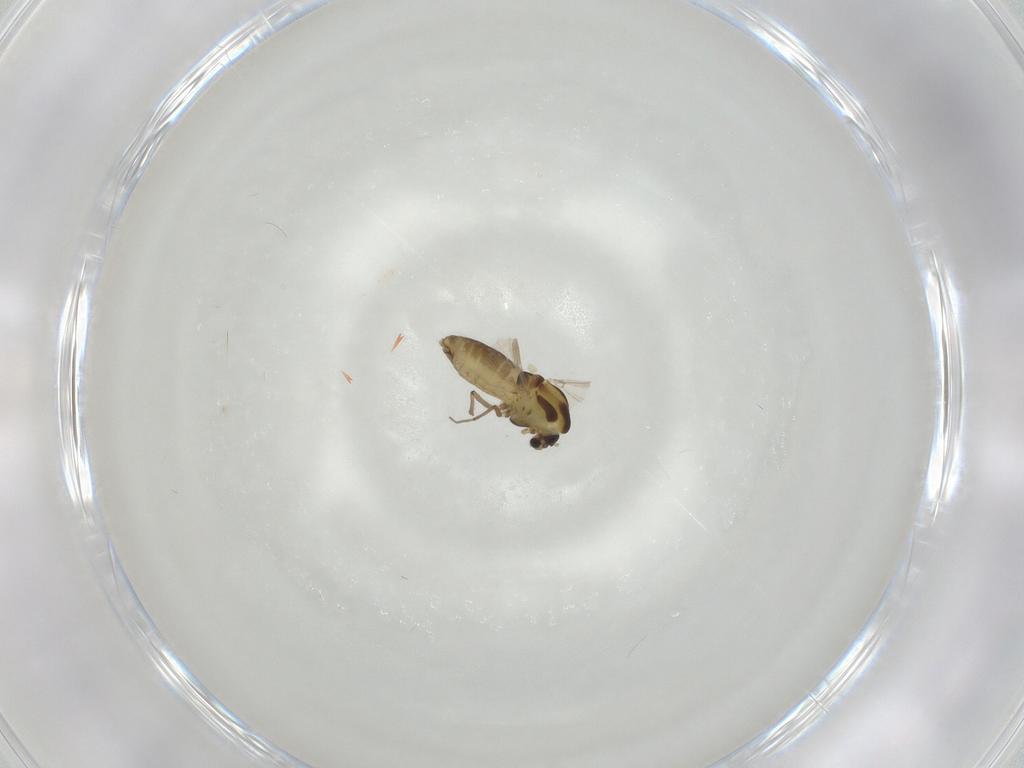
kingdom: Animalia
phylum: Arthropoda
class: Insecta
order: Diptera
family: Chironomidae
